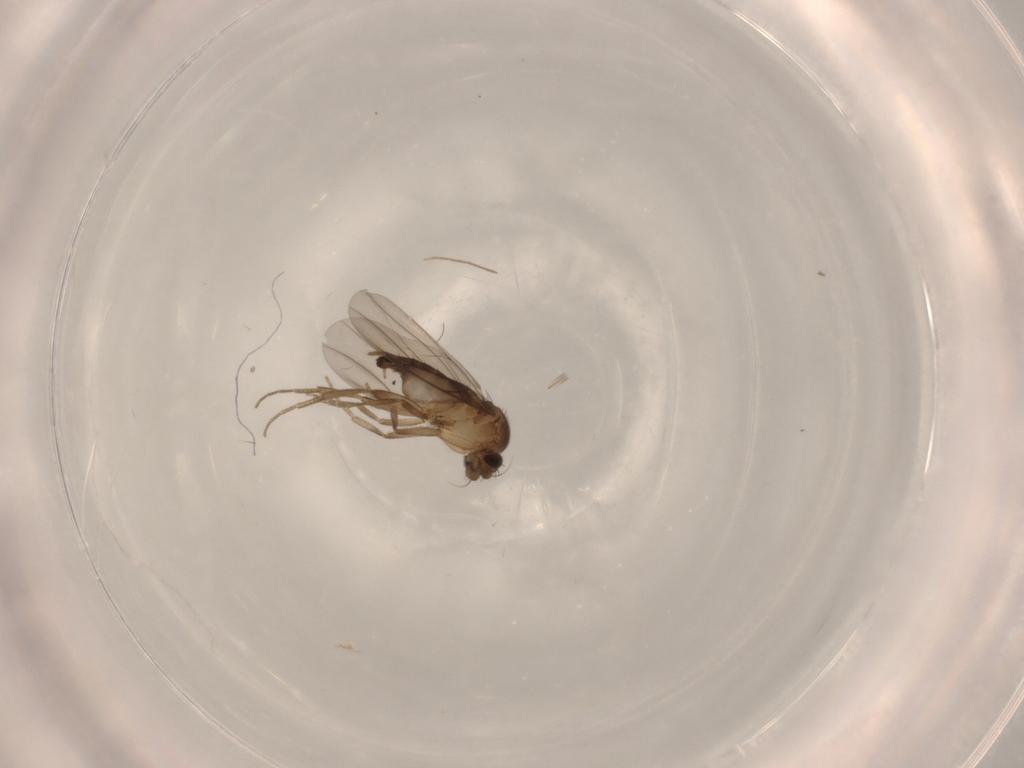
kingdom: Animalia
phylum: Arthropoda
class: Insecta
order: Diptera
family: Phoridae
